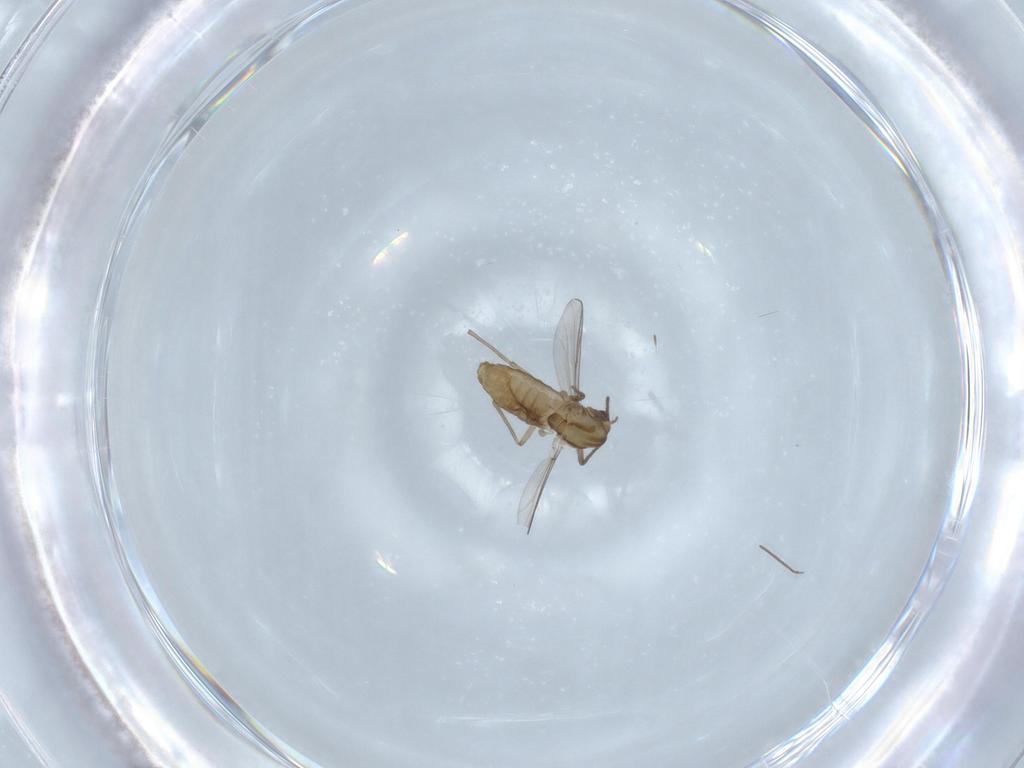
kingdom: Animalia
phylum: Arthropoda
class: Insecta
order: Diptera
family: Chironomidae
